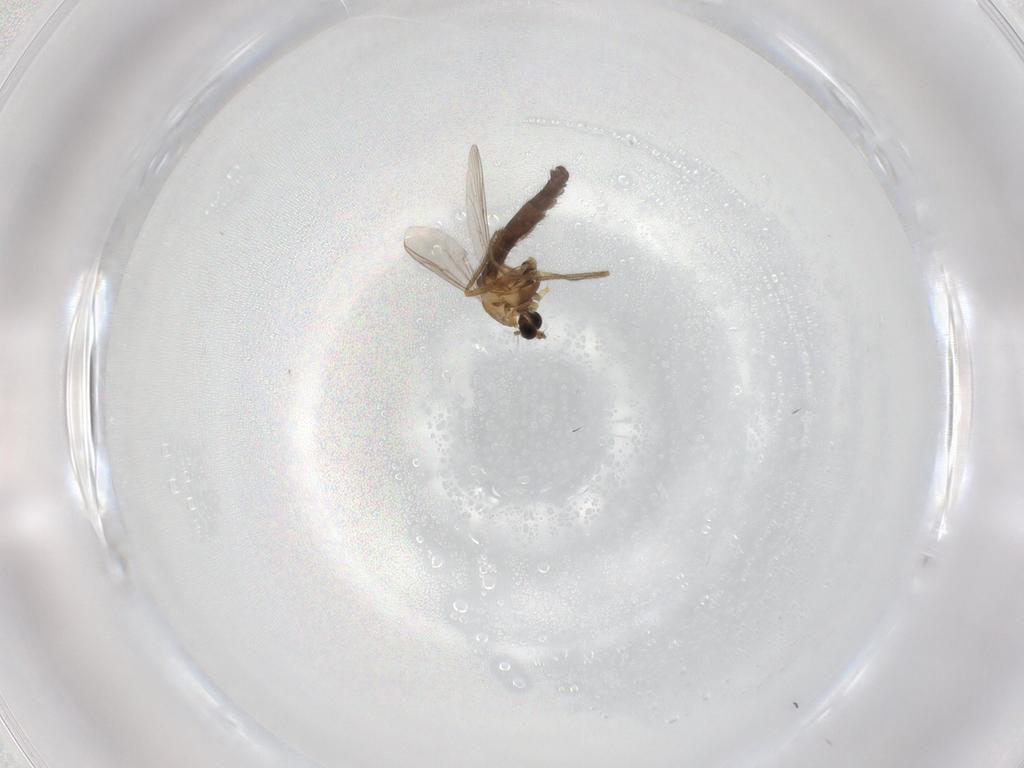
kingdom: Animalia
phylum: Arthropoda
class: Insecta
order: Diptera
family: Chironomidae
